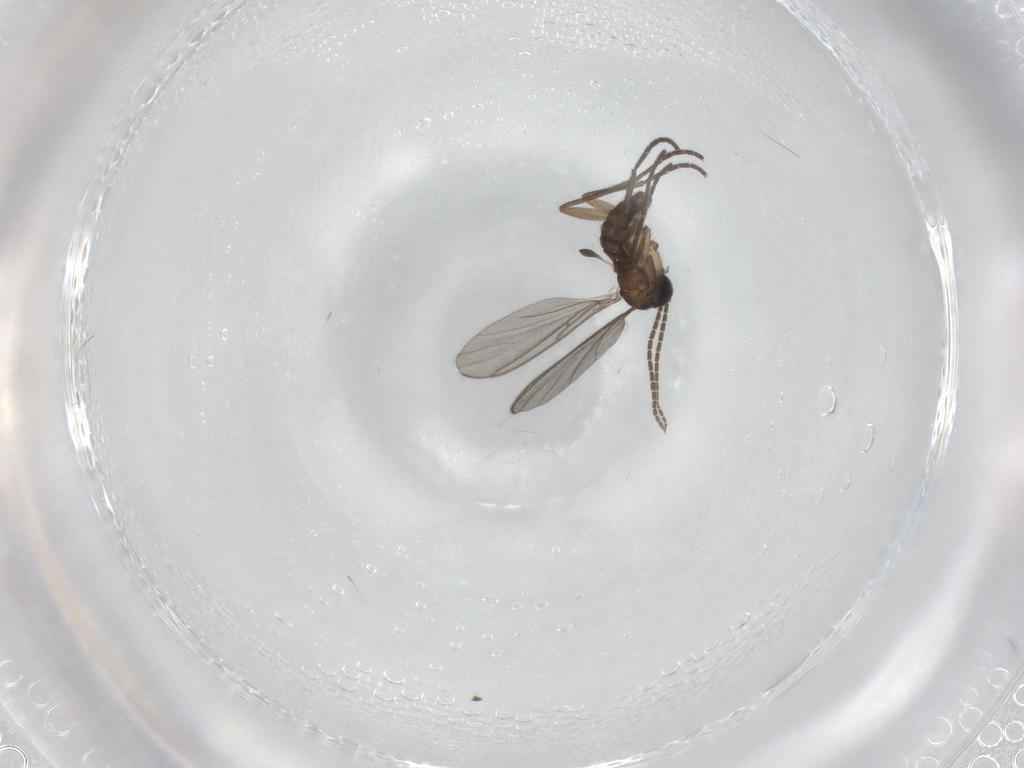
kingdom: Animalia
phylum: Arthropoda
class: Insecta
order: Diptera
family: Sciaridae
